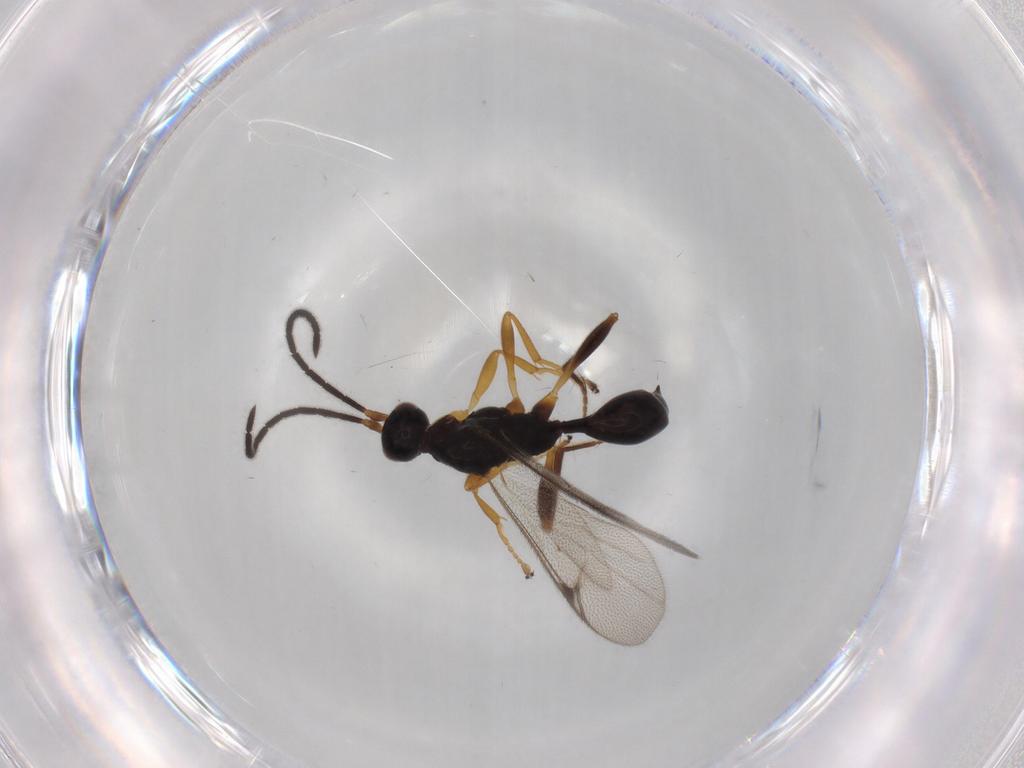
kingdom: Animalia
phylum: Arthropoda
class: Insecta
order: Hymenoptera
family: Proctotrupidae
